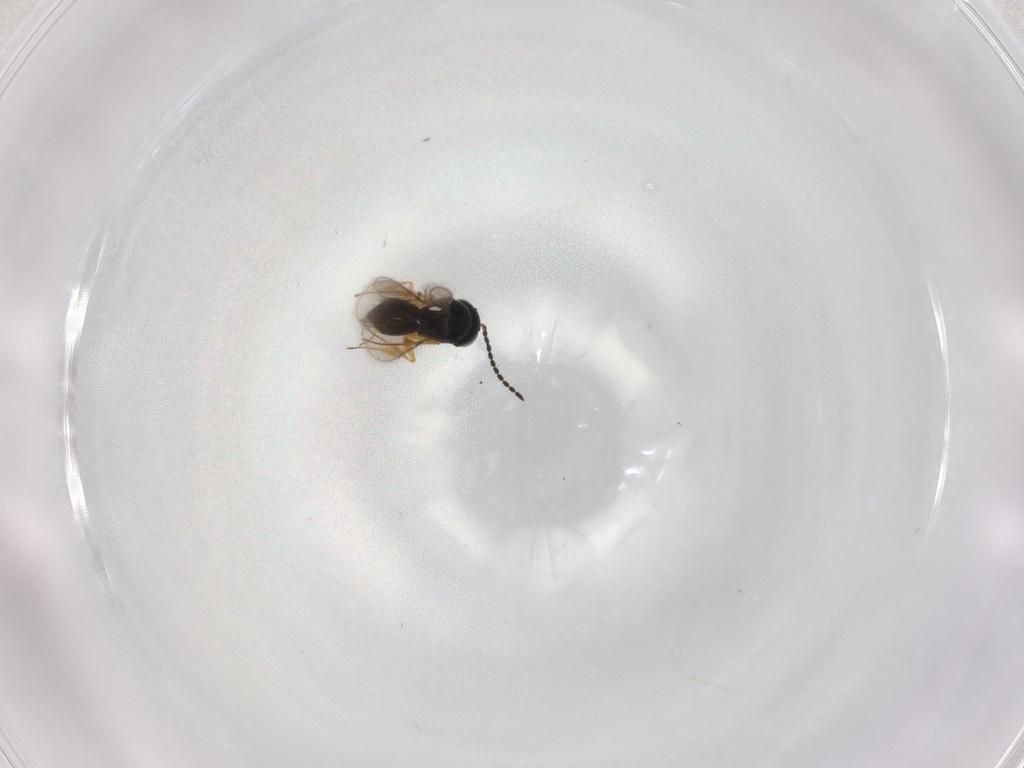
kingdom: Animalia
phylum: Arthropoda
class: Insecta
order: Hymenoptera
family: Scelionidae
